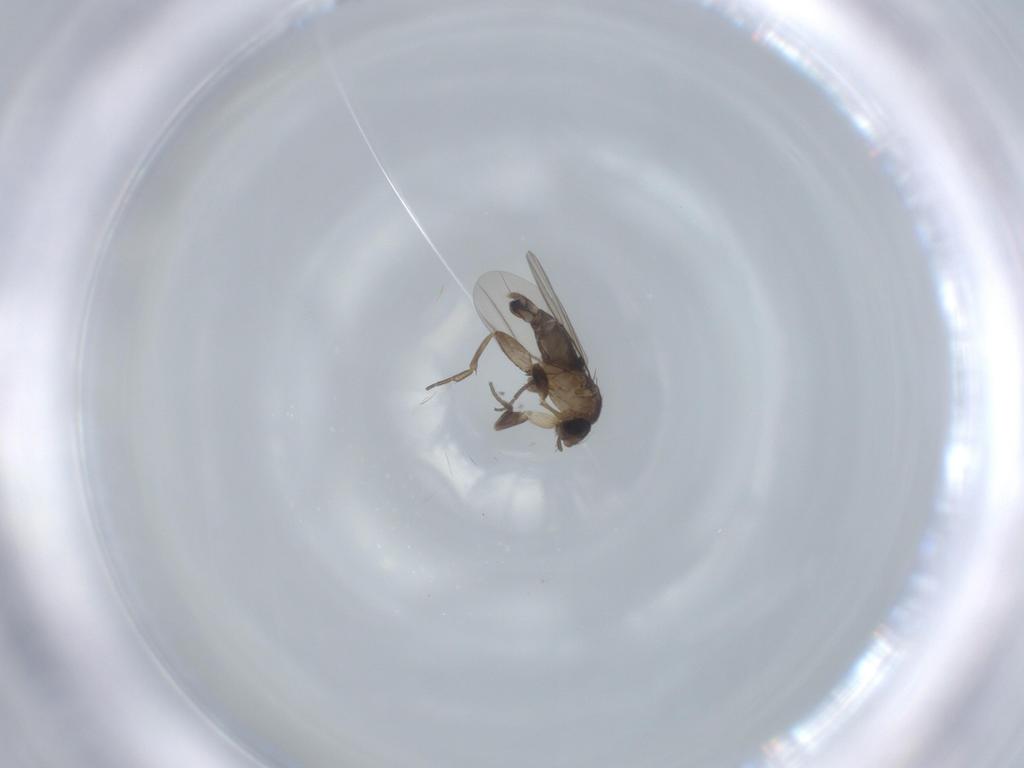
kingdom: Animalia
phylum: Arthropoda
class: Insecta
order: Diptera
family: Phoridae
